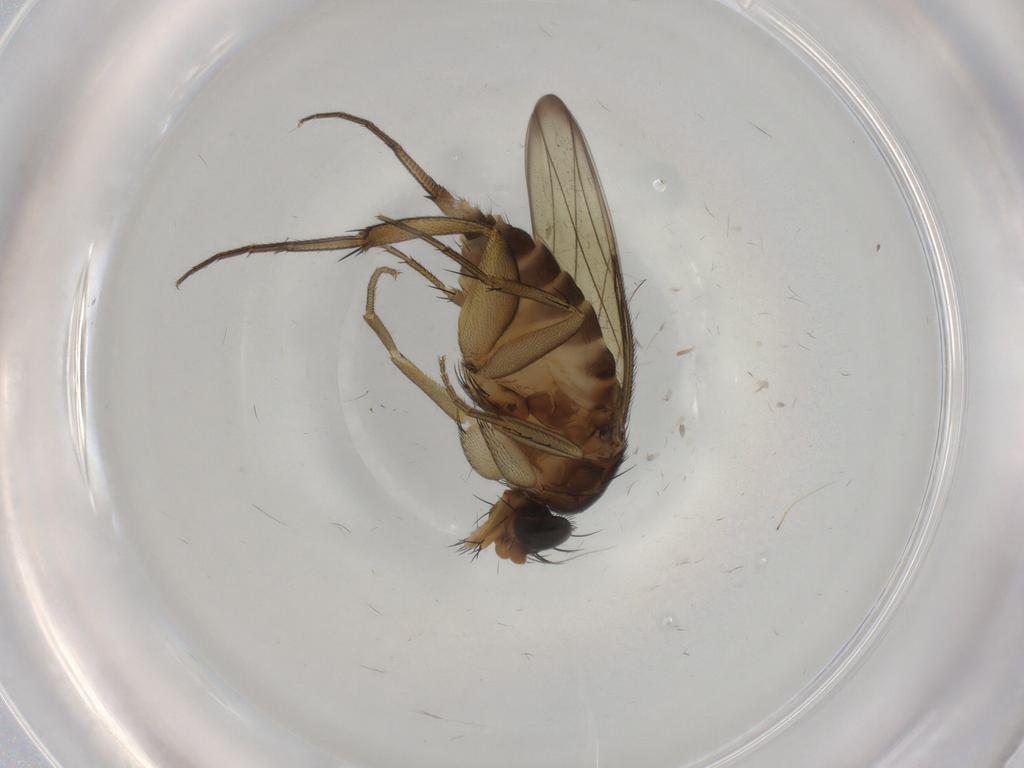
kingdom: Animalia
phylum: Arthropoda
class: Insecta
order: Diptera
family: Phoridae
